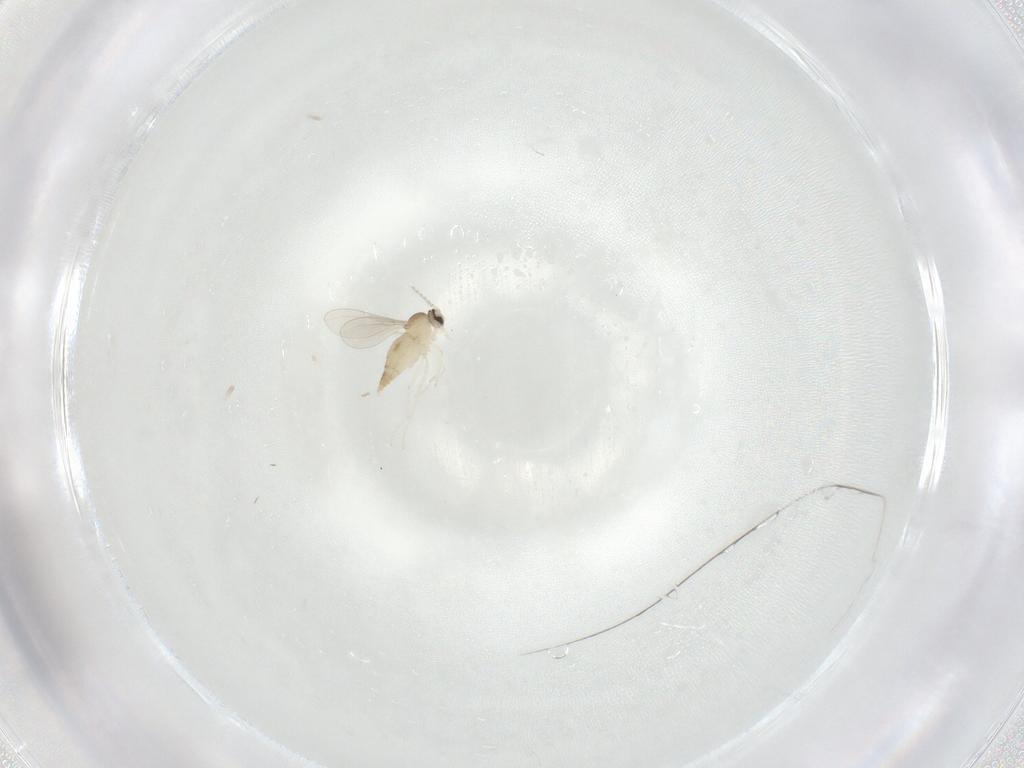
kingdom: Animalia
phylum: Arthropoda
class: Insecta
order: Diptera
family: Cecidomyiidae
